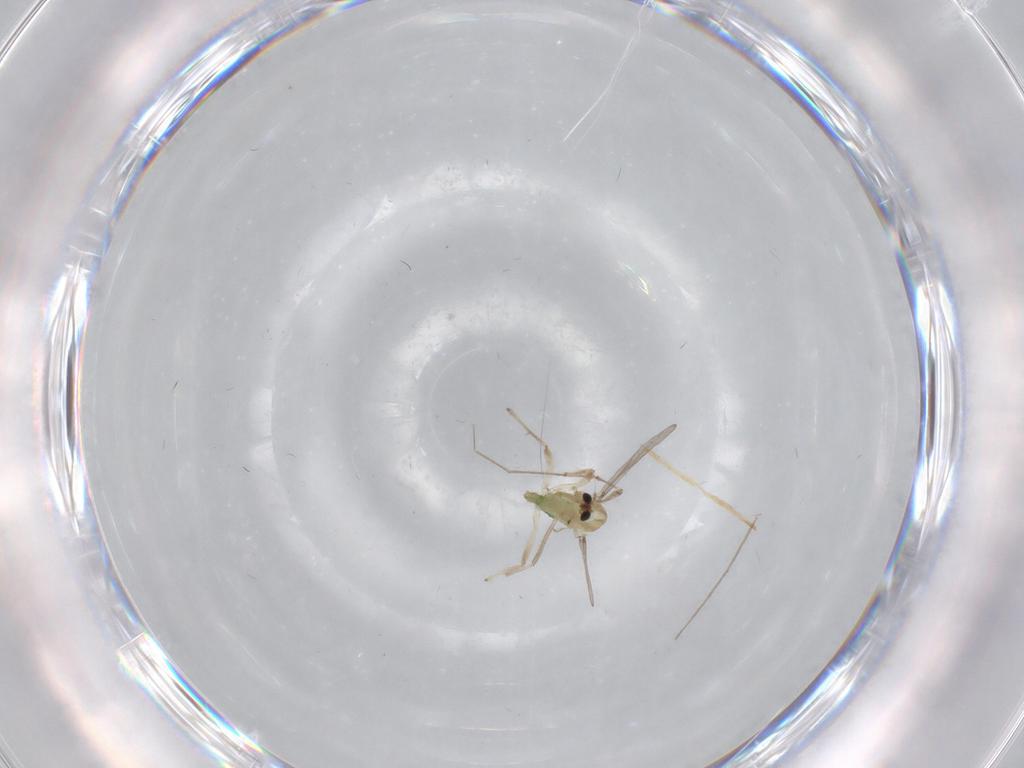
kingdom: Animalia
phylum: Arthropoda
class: Insecta
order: Diptera
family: Chironomidae
